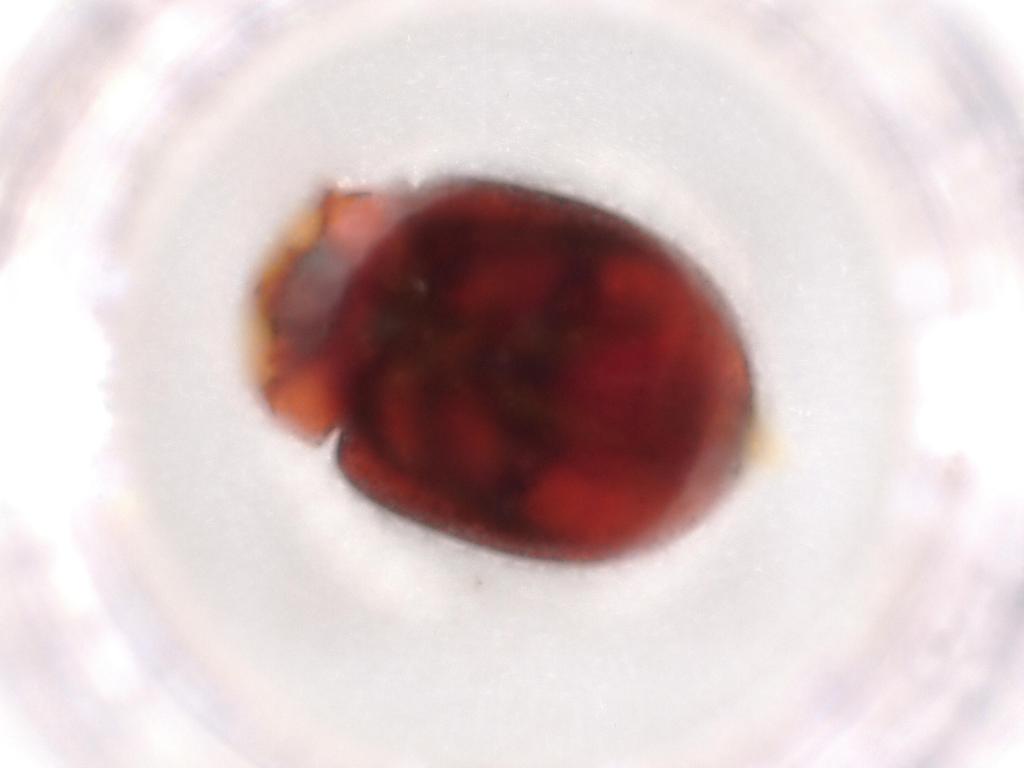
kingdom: Animalia
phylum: Arthropoda
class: Insecta
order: Coleoptera
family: Coccinellidae
